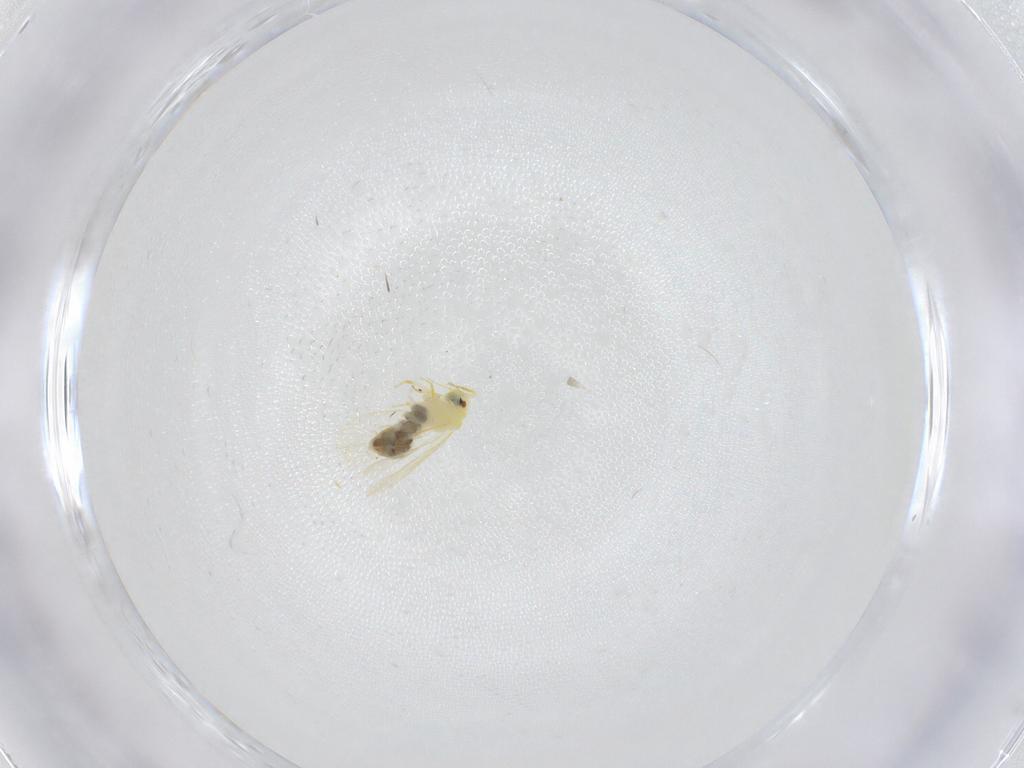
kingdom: Animalia
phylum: Arthropoda
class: Insecta
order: Hemiptera
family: Aleyrodidae
